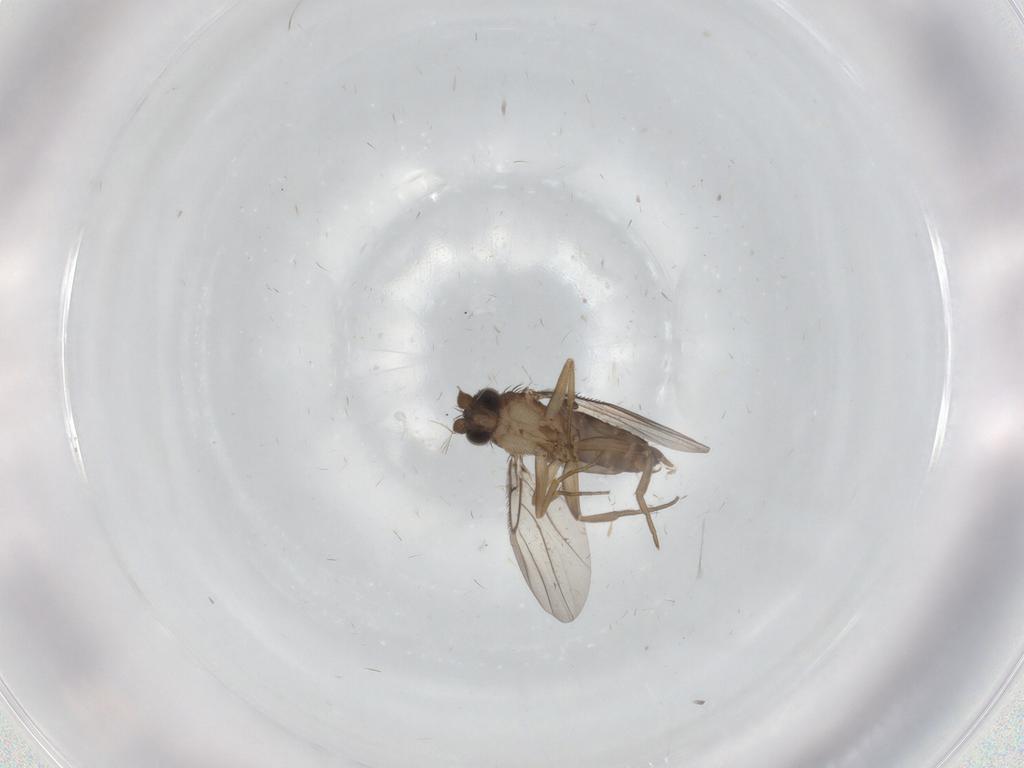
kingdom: Animalia
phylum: Arthropoda
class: Insecta
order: Diptera
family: Phoridae
